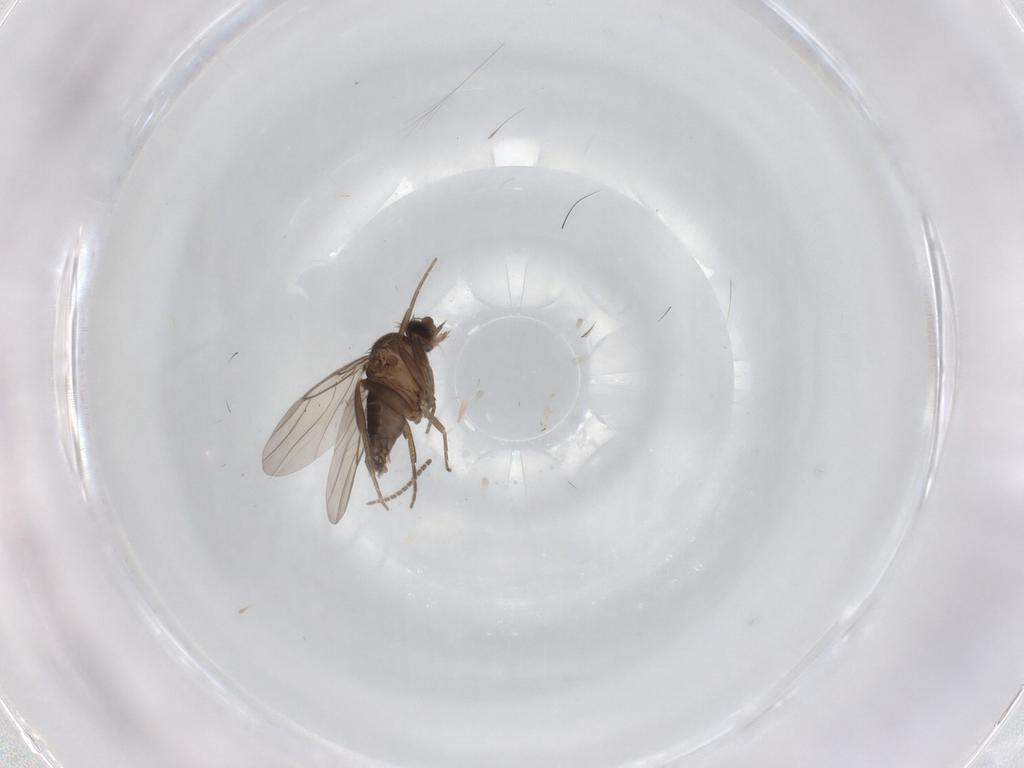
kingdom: Animalia
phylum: Arthropoda
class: Insecta
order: Diptera
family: Phoridae
